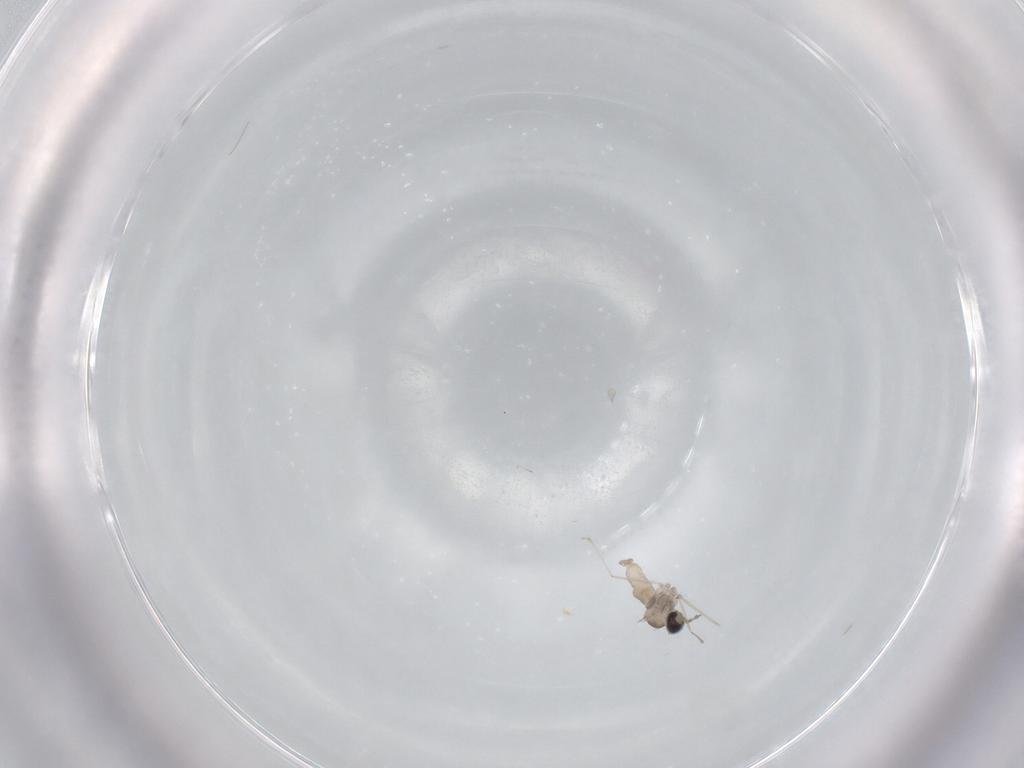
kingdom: Animalia
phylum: Arthropoda
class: Insecta
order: Diptera
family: Cecidomyiidae
